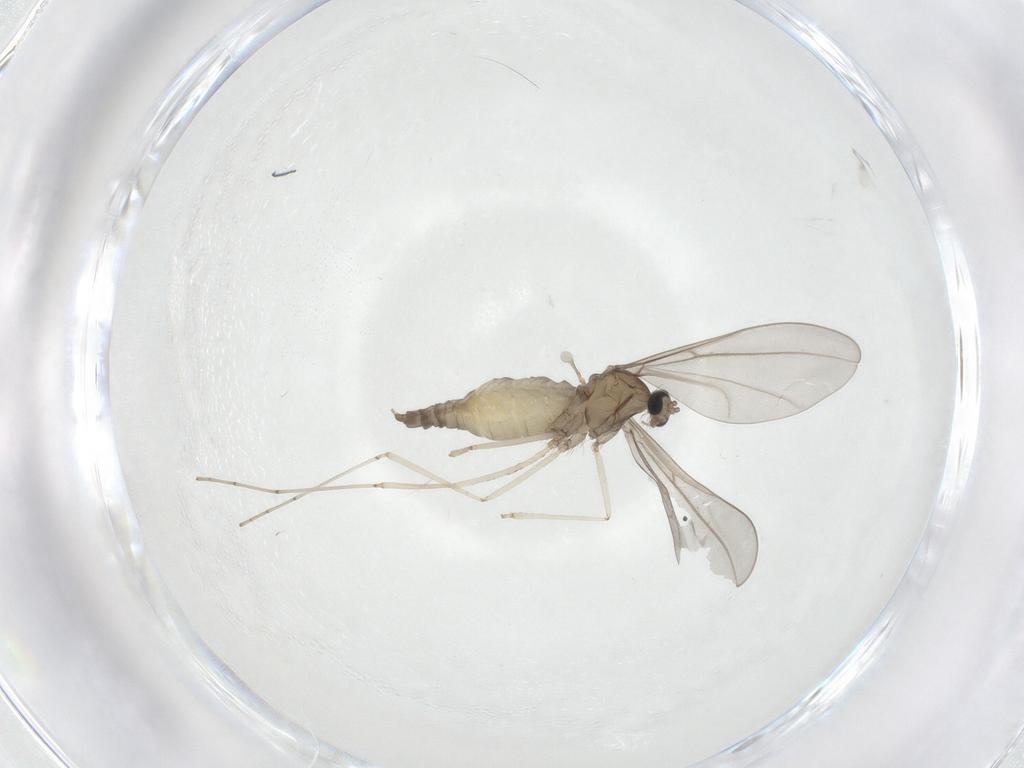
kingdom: Animalia
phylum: Arthropoda
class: Insecta
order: Diptera
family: Cecidomyiidae
